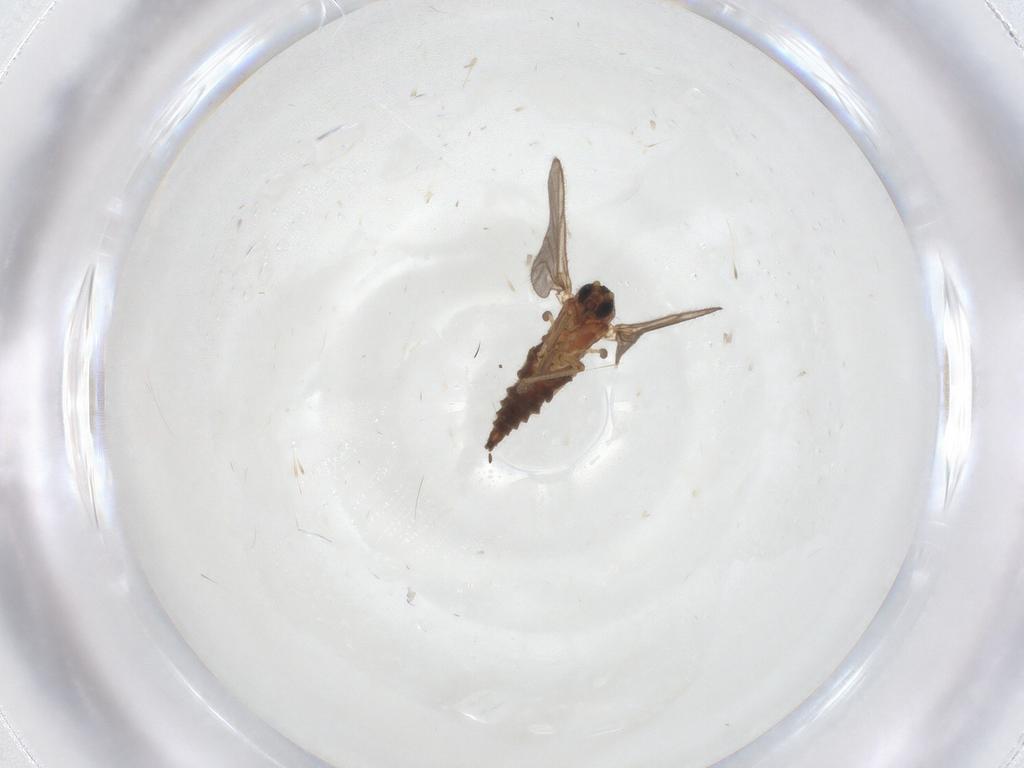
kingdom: Animalia
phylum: Arthropoda
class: Insecta
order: Diptera
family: Sciaridae
